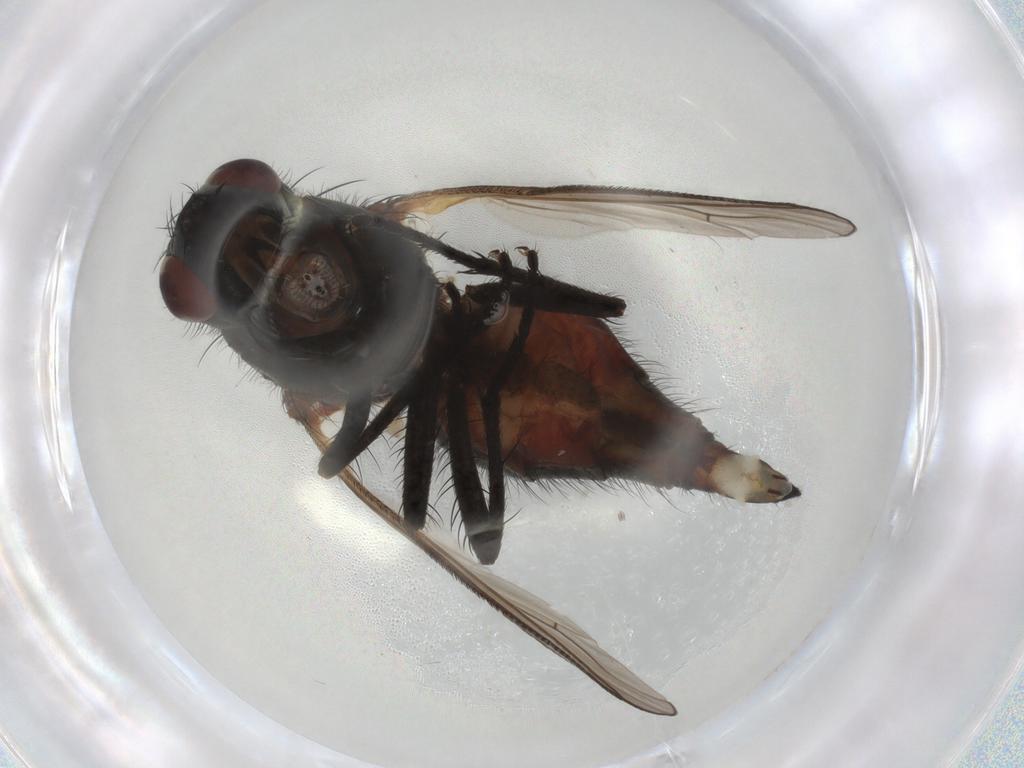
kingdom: Animalia
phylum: Arthropoda
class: Insecta
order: Diptera
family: Anthomyiidae
